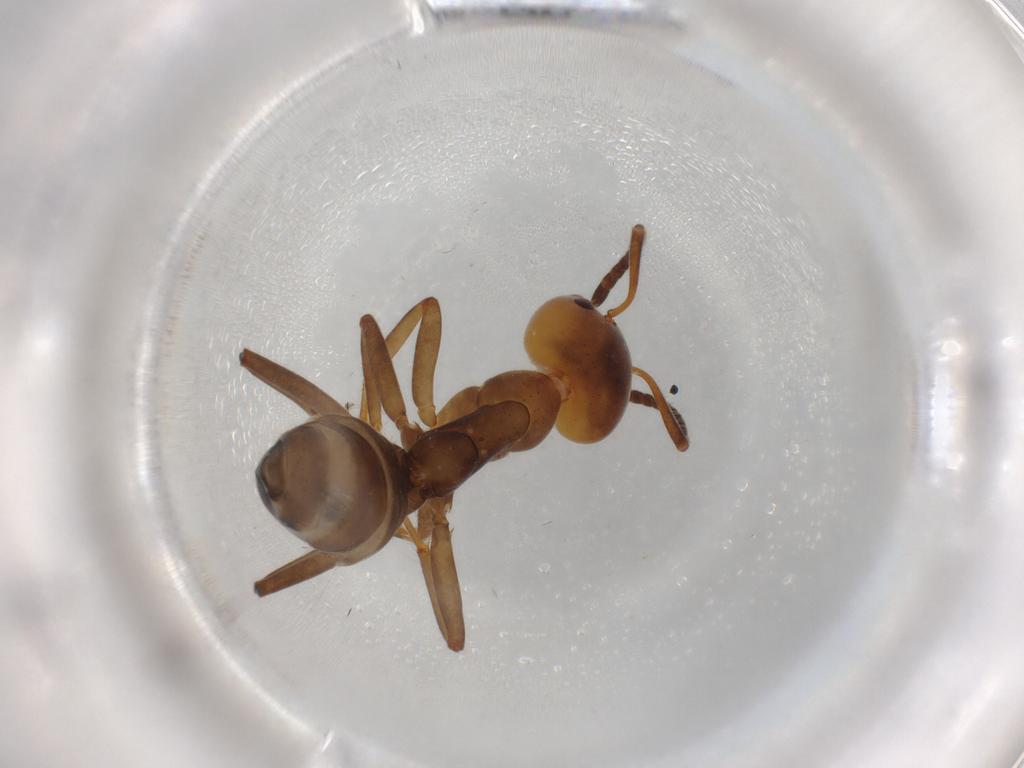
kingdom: Animalia
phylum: Arthropoda
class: Insecta
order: Hymenoptera
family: Formicidae
